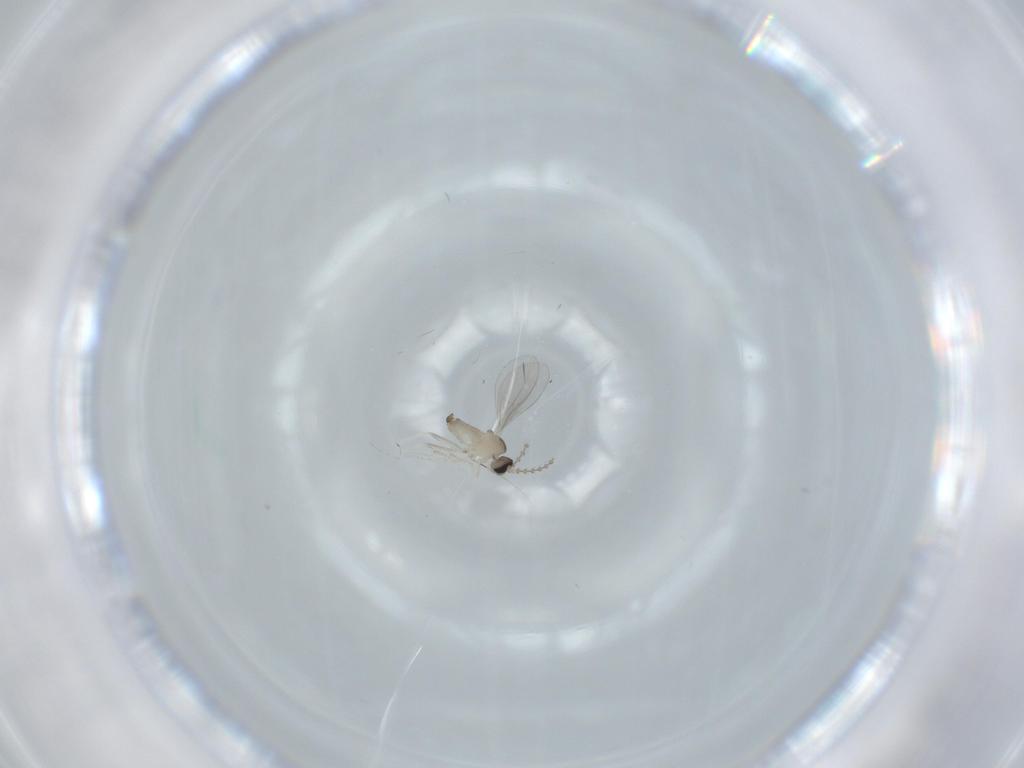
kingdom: Animalia
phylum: Arthropoda
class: Insecta
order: Diptera
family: Cecidomyiidae
